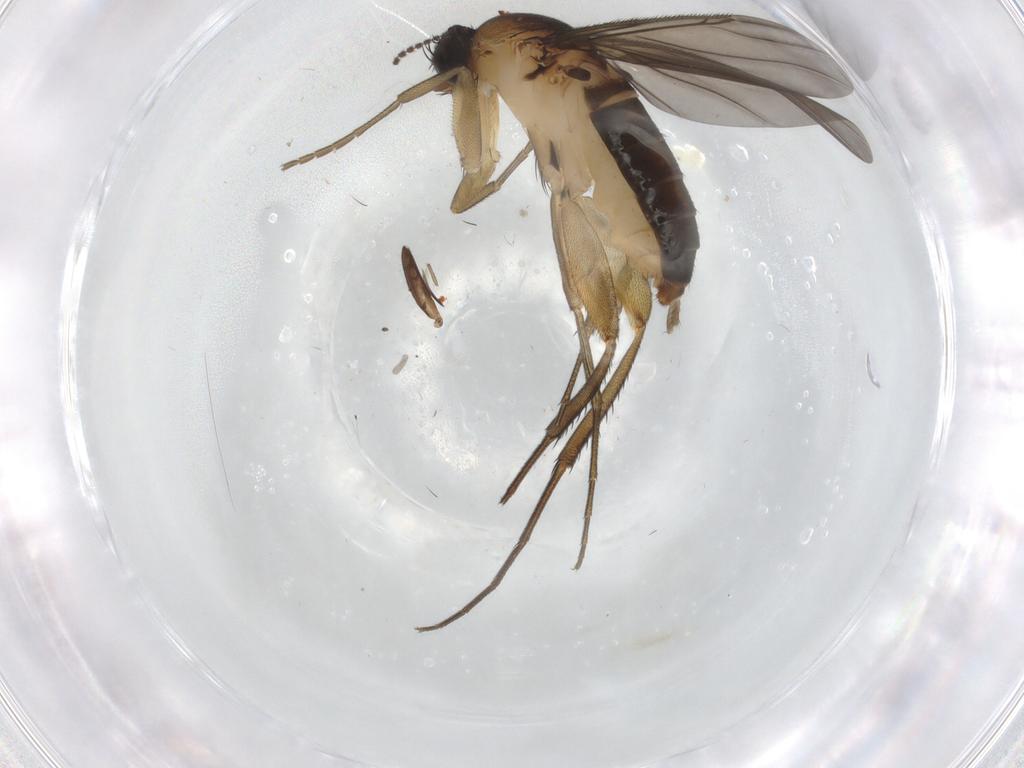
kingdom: Animalia
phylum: Arthropoda
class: Insecta
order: Diptera
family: Phoridae
